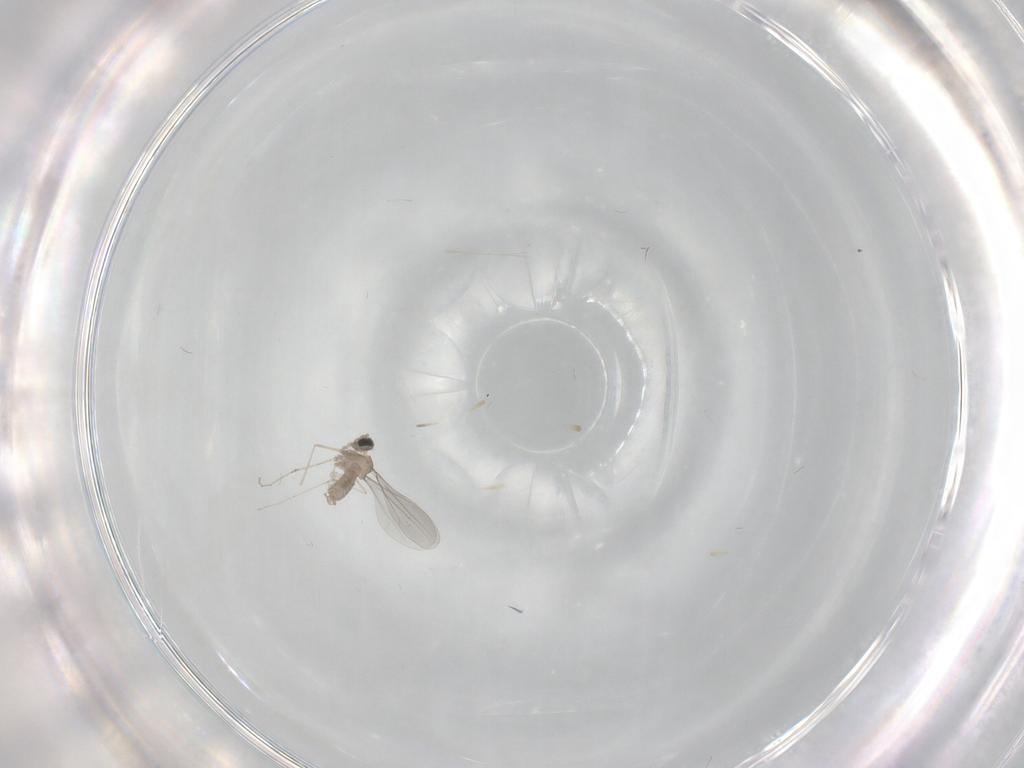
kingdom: Animalia
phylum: Arthropoda
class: Insecta
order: Diptera
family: Cecidomyiidae
